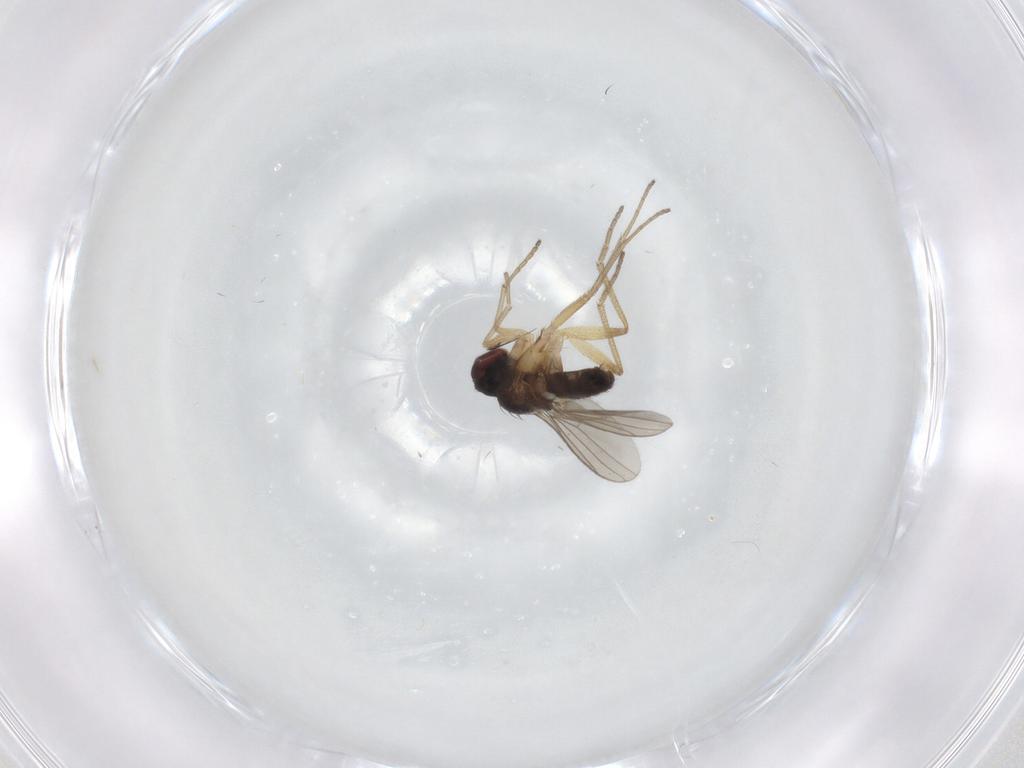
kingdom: Animalia
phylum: Arthropoda
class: Insecta
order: Diptera
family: Dolichopodidae
